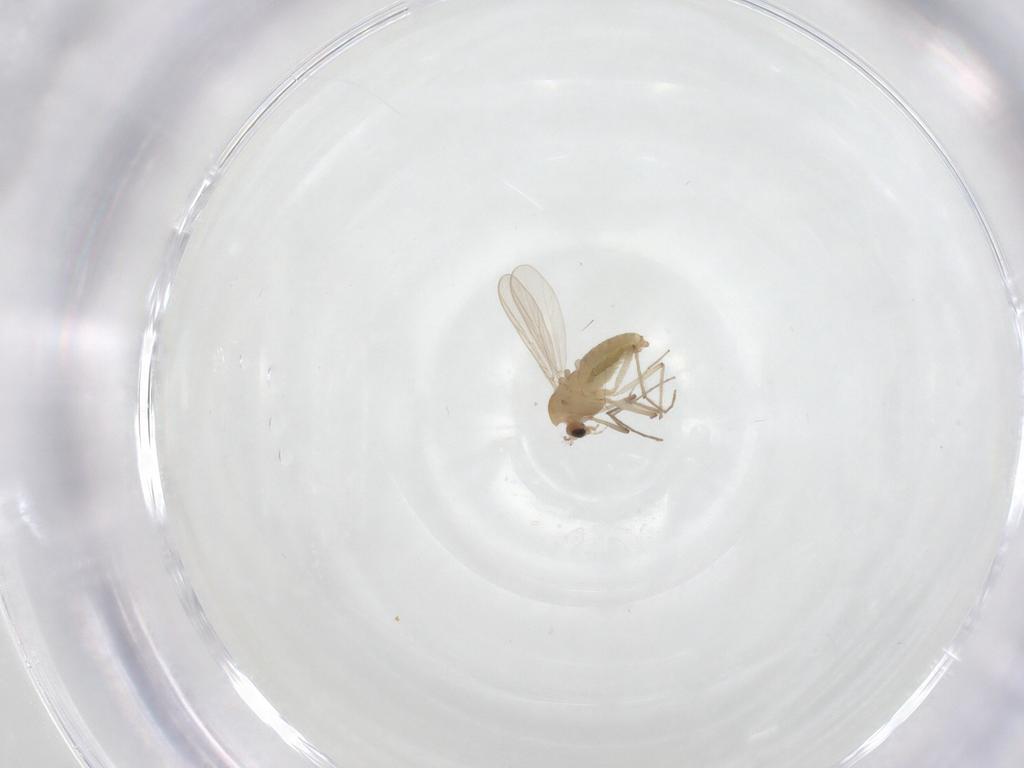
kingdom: Animalia
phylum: Arthropoda
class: Insecta
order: Diptera
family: Chironomidae
